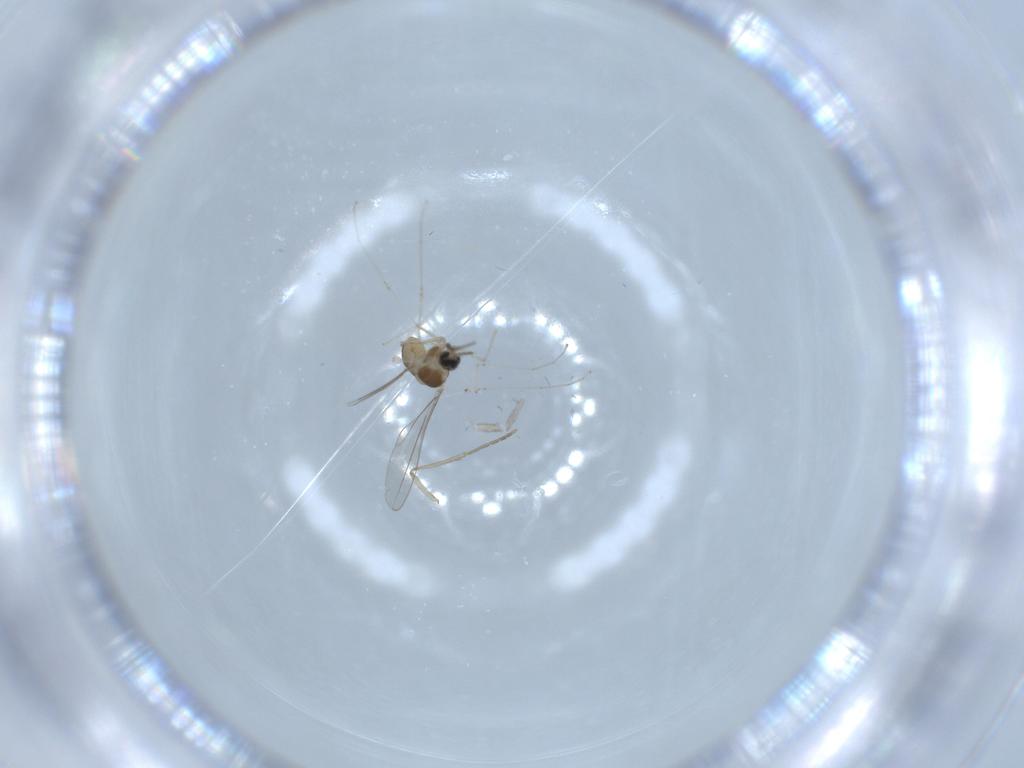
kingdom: Animalia
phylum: Arthropoda
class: Insecta
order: Diptera
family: Cecidomyiidae
